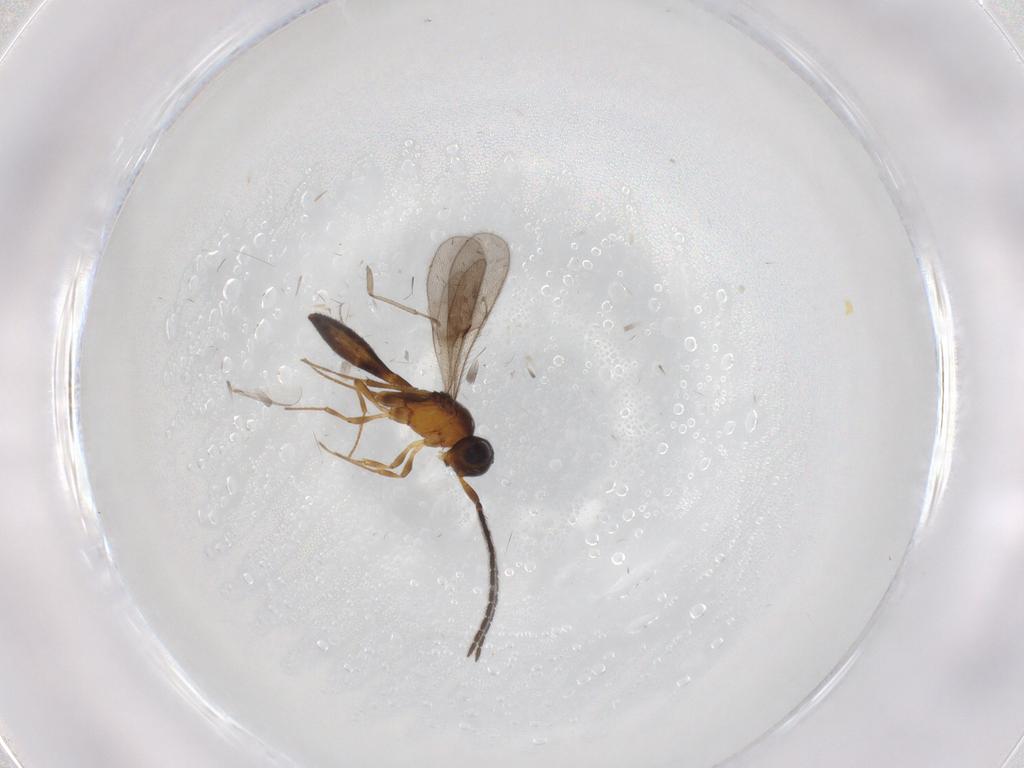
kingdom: Animalia
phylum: Arthropoda
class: Insecta
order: Hymenoptera
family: Scelionidae
